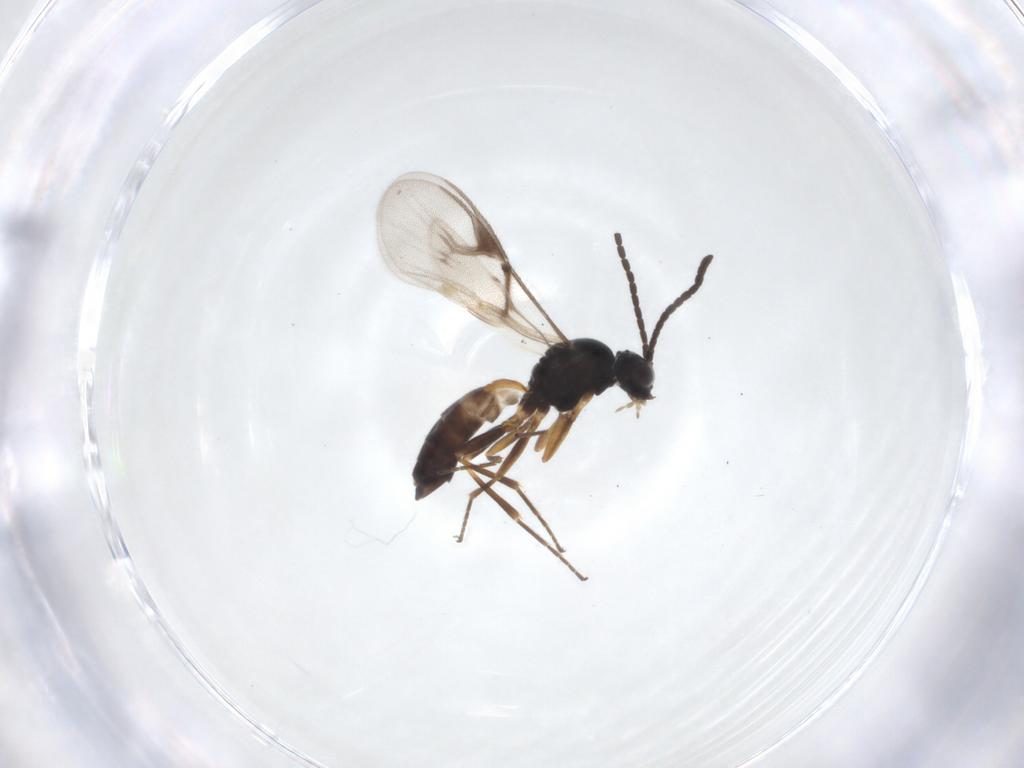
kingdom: Animalia
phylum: Arthropoda
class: Insecta
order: Hymenoptera
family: Braconidae
